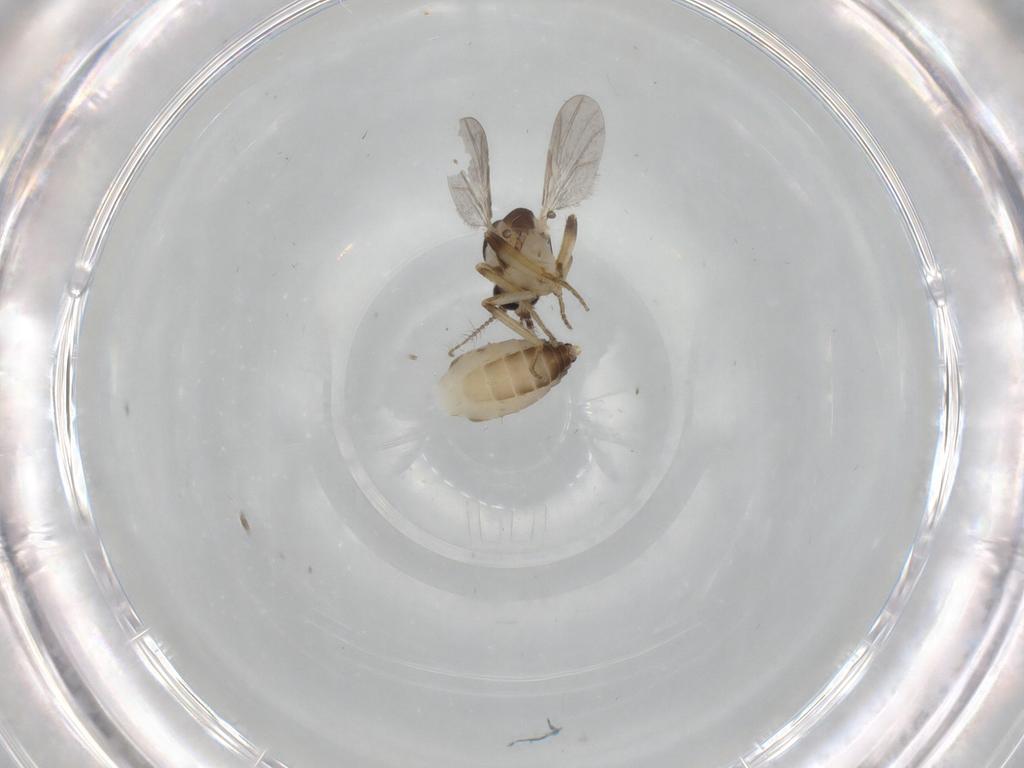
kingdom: Animalia
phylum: Arthropoda
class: Insecta
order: Diptera
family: Ceratopogonidae
